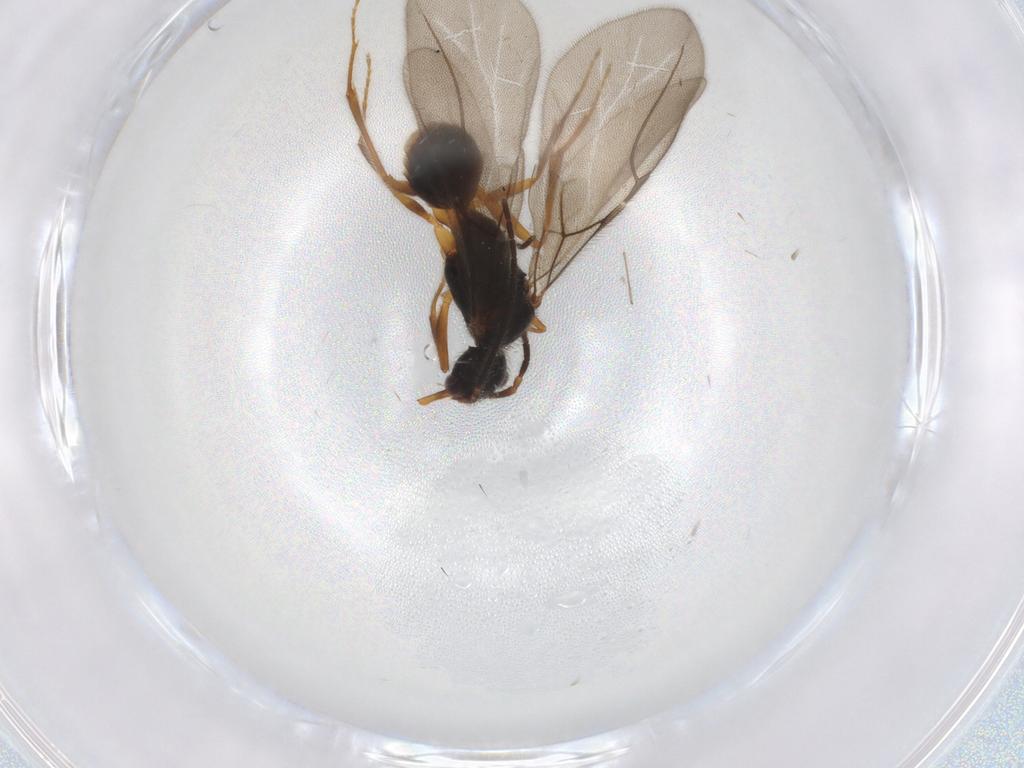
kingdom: Animalia
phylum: Arthropoda
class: Insecta
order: Hymenoptera
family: Bethylidae
